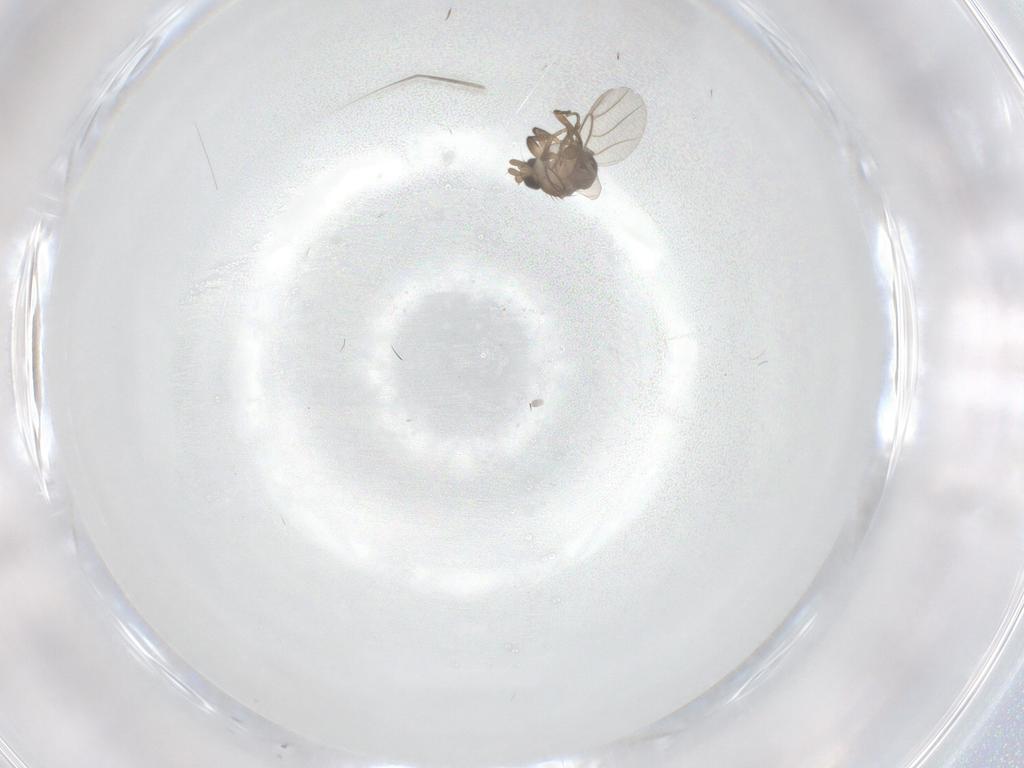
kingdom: Animalia
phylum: Arthropoda
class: Insecta
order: Diptera
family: Phoridae
